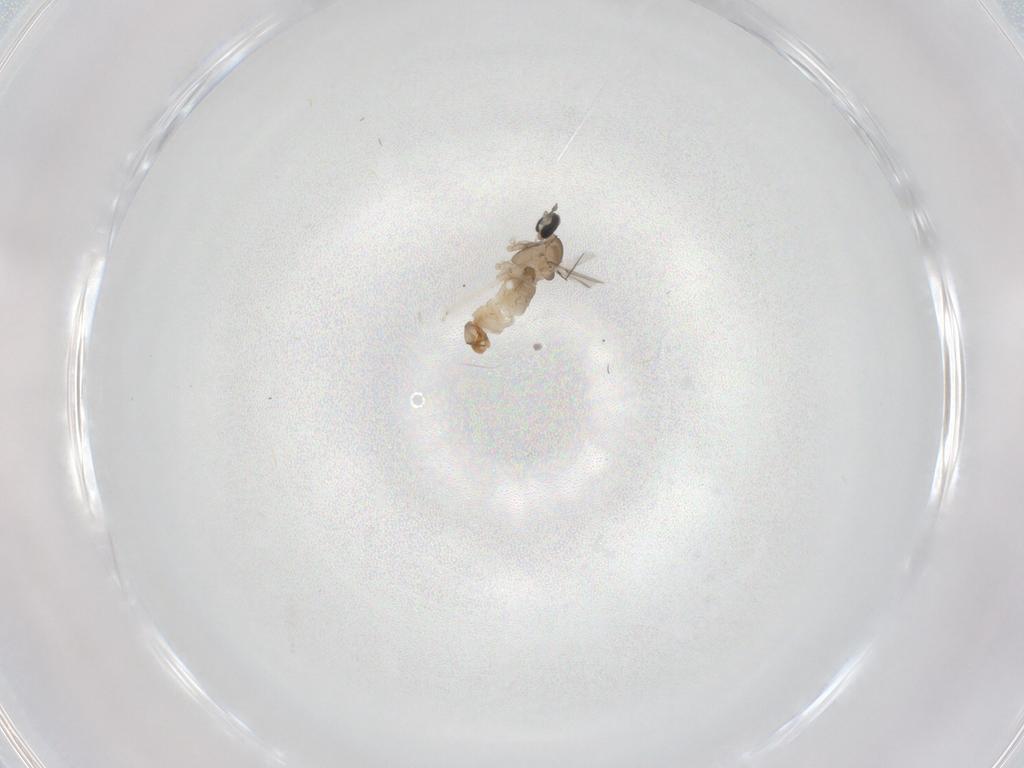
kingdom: Animalia
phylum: Arthropoda
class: Insecta
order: Diptera
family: Cecidomyiidae
